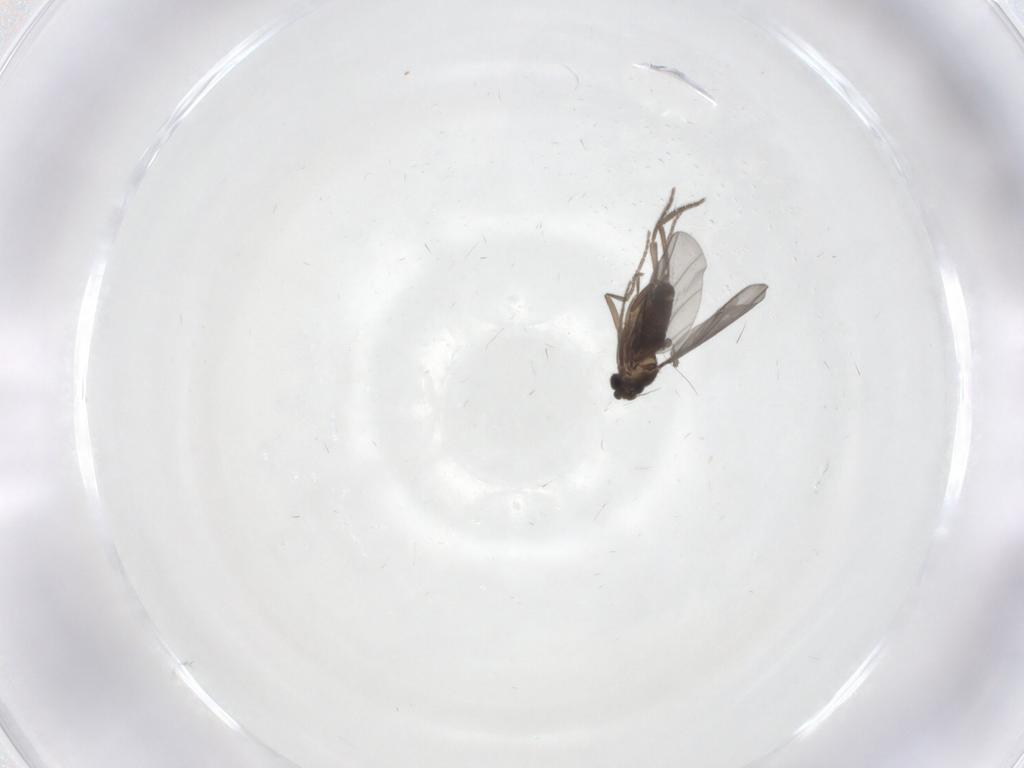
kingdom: Animalia
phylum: Arthropoda
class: Insecta
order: Diptera
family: Phoridae
